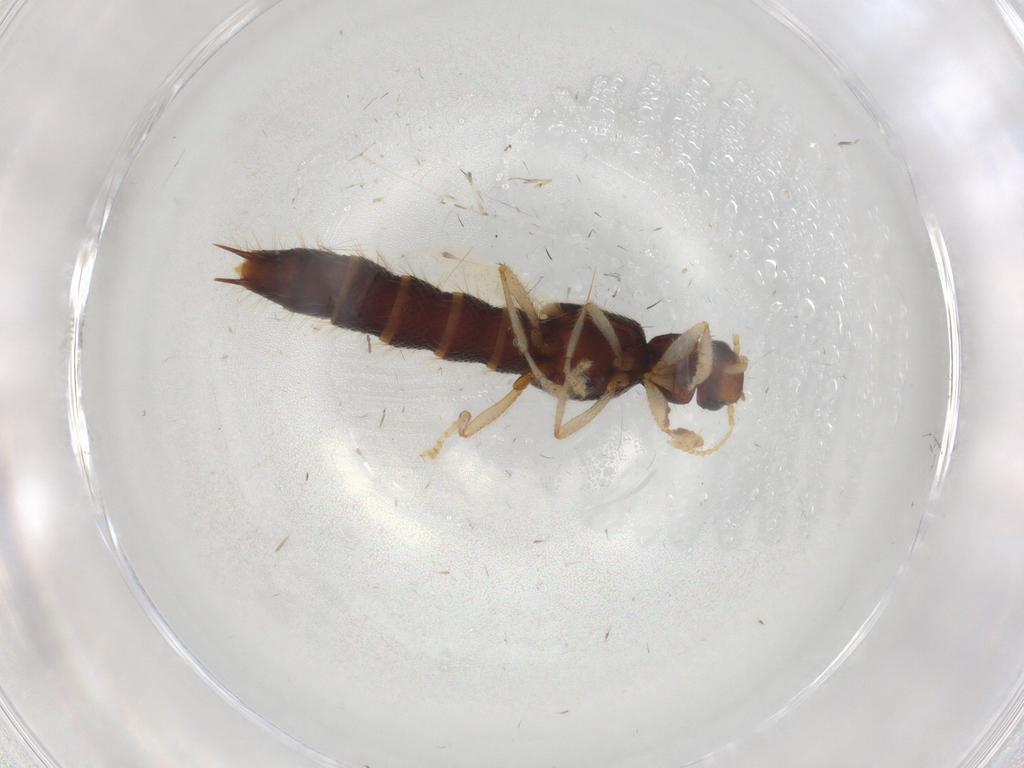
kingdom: Animalia
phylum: Arthropoda
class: Insecta
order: Coleoptera
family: Staphylinidae
